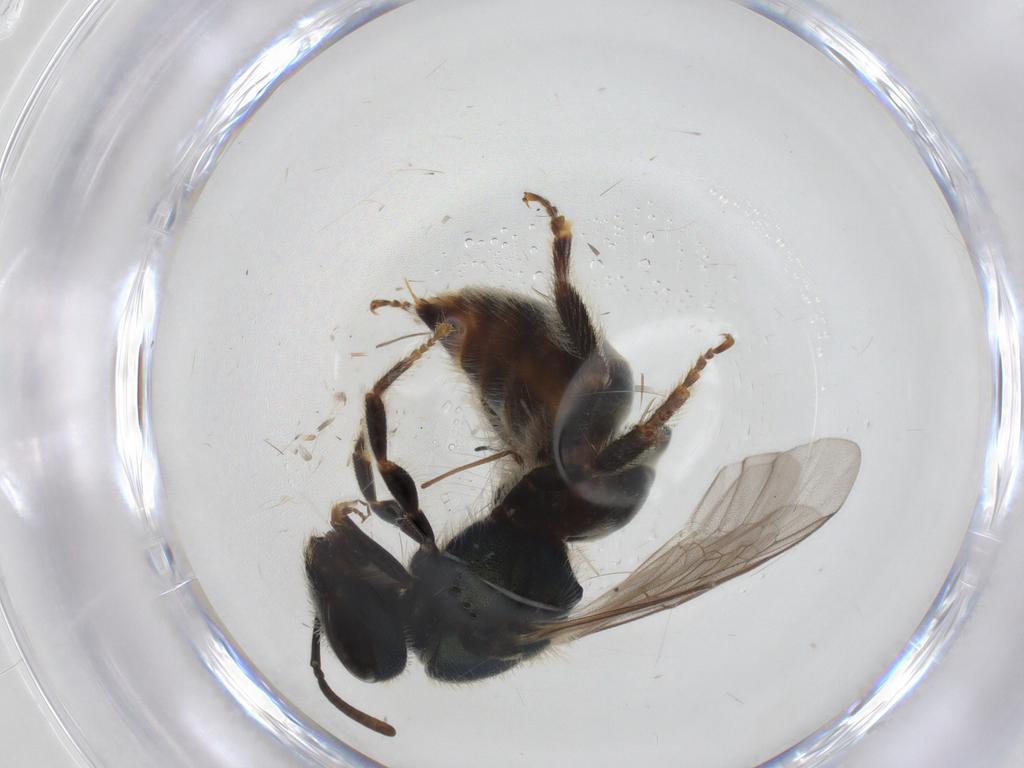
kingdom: Animalia
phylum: Arthropoda
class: Insecta
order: Hymenoptera
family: Halictidae
